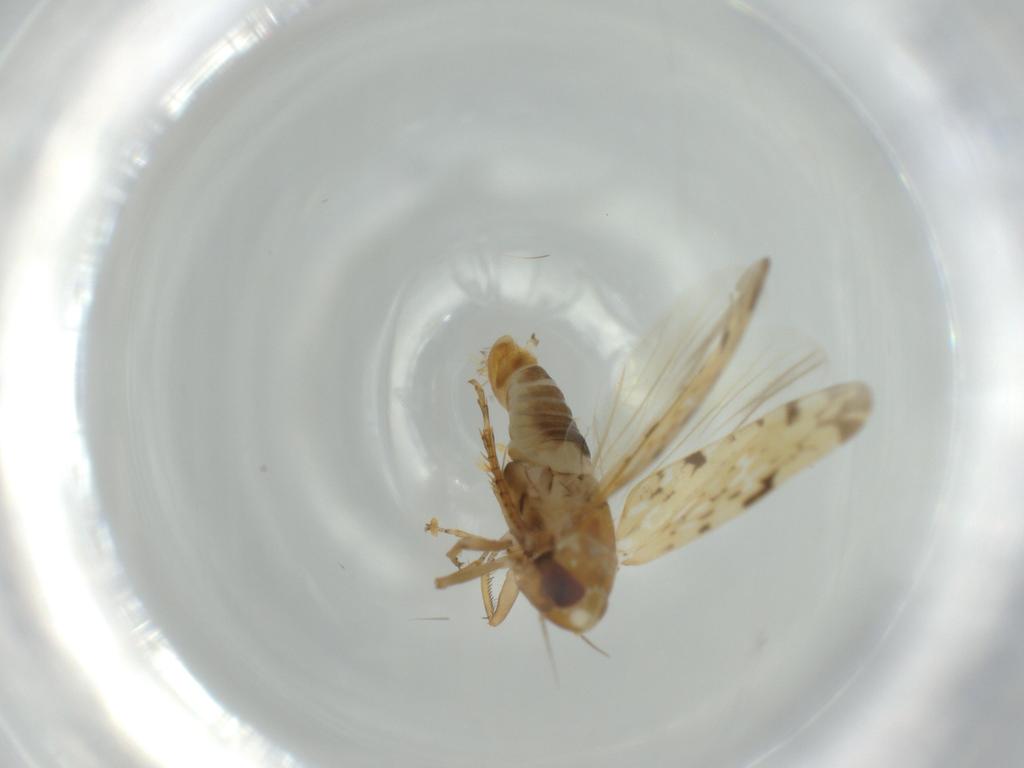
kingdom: Animalia
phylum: Arthropoda
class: Insecta
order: Hemiptera
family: Cicadellidae
